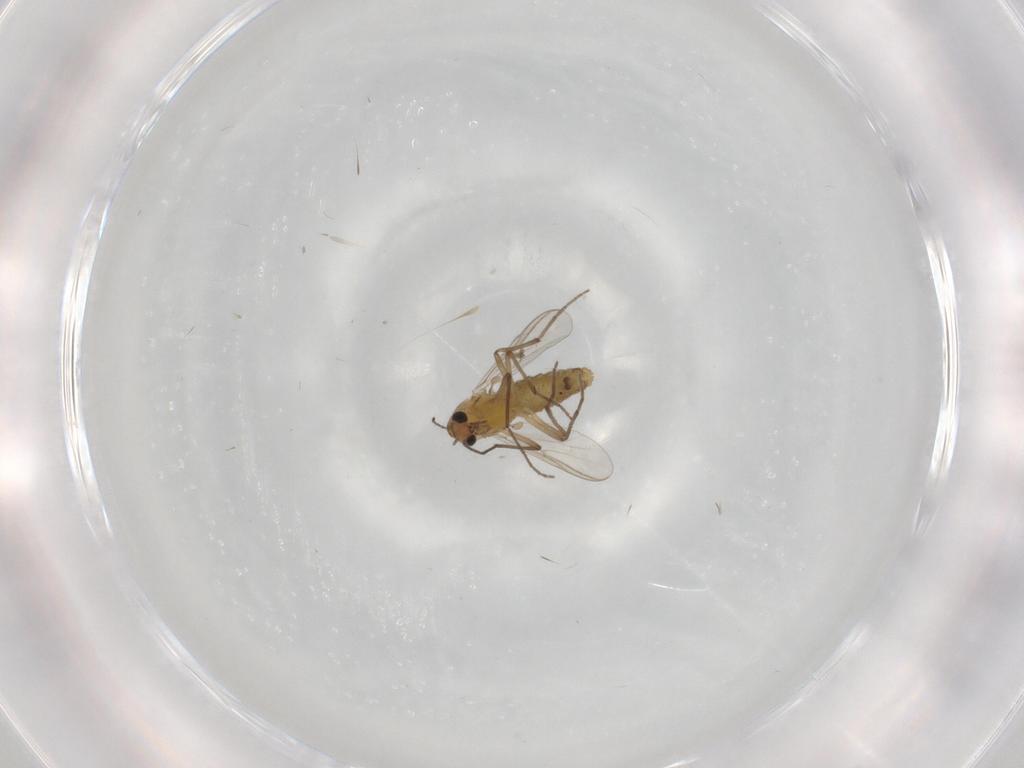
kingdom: Animalia
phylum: Arthropoda
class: Insecta
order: Diptera
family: Chironomidae
